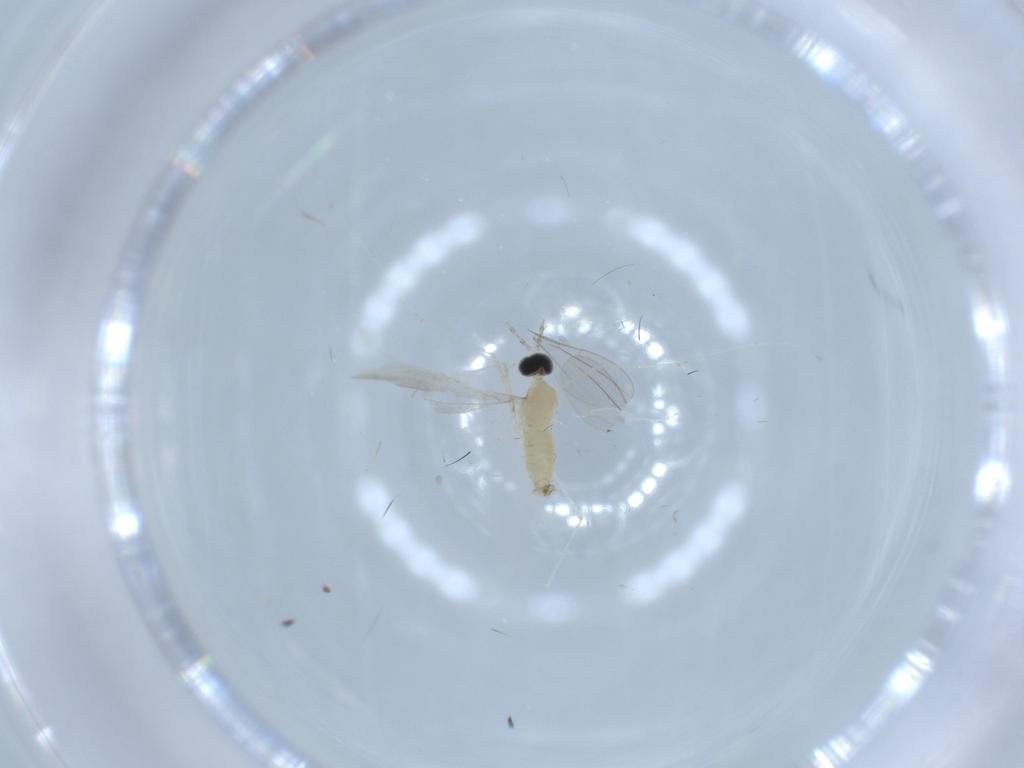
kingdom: Animalia
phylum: Arthropoda
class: Insecta
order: Diptera
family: Cecidomyiidae
